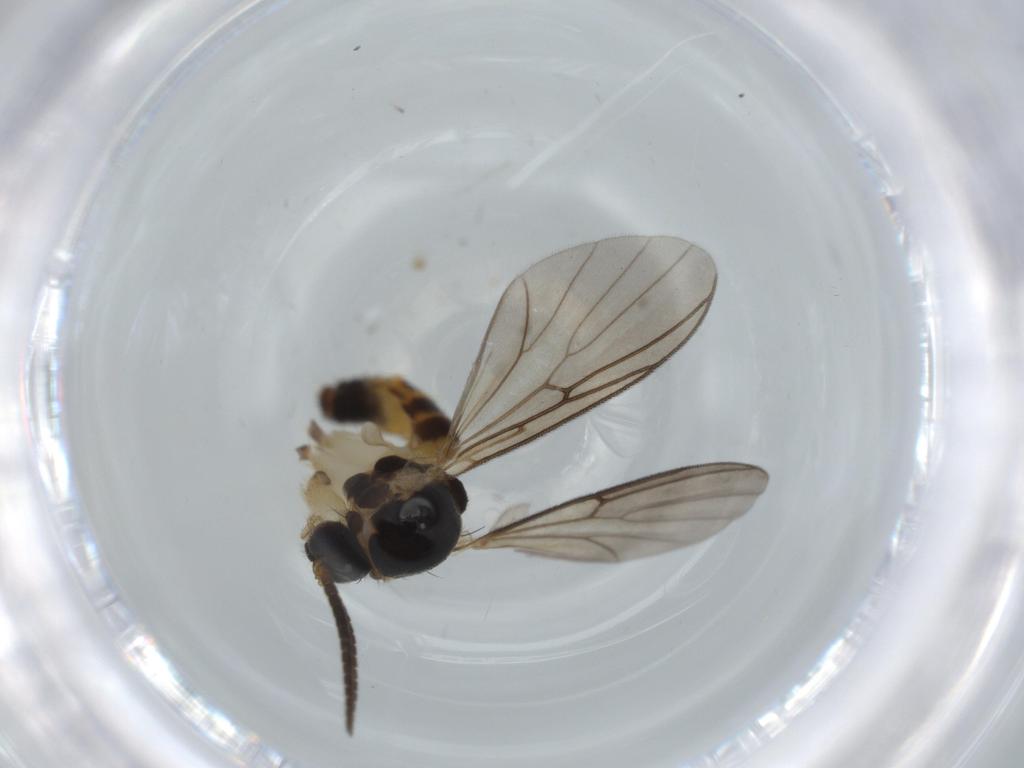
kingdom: Animalia
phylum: Arthropoda
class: Insecta
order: Diptera
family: Mycetophilidae
